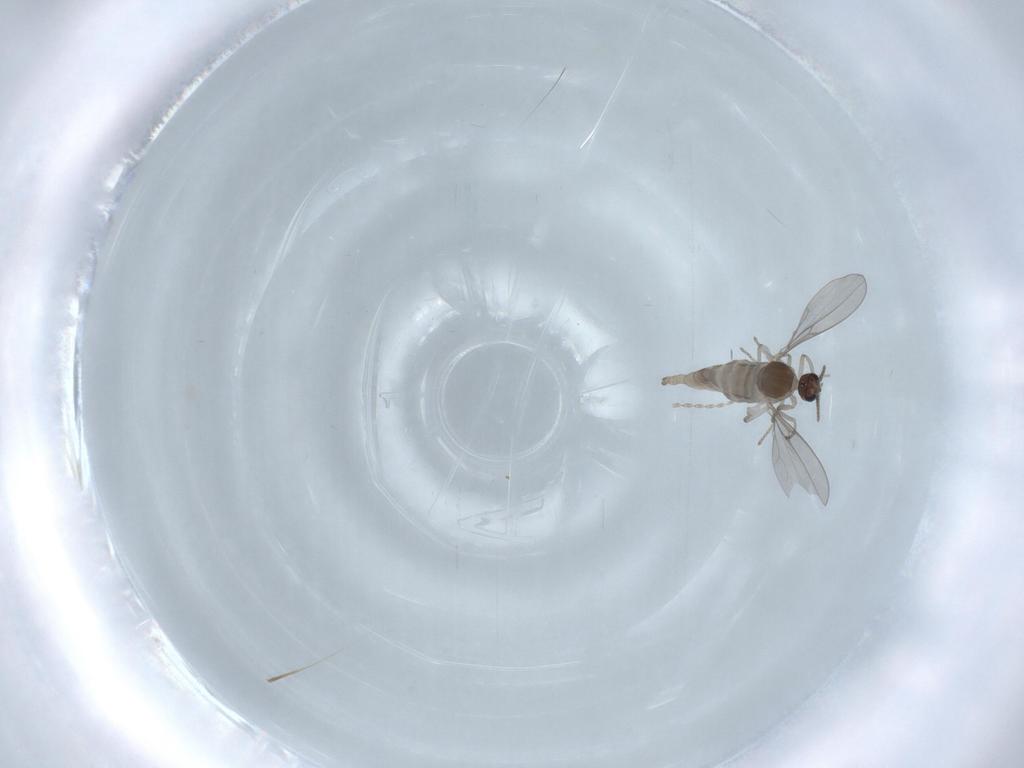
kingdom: Animalia
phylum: Arthropoda
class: Insecta
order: Diptera
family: Cecidomyiidae
